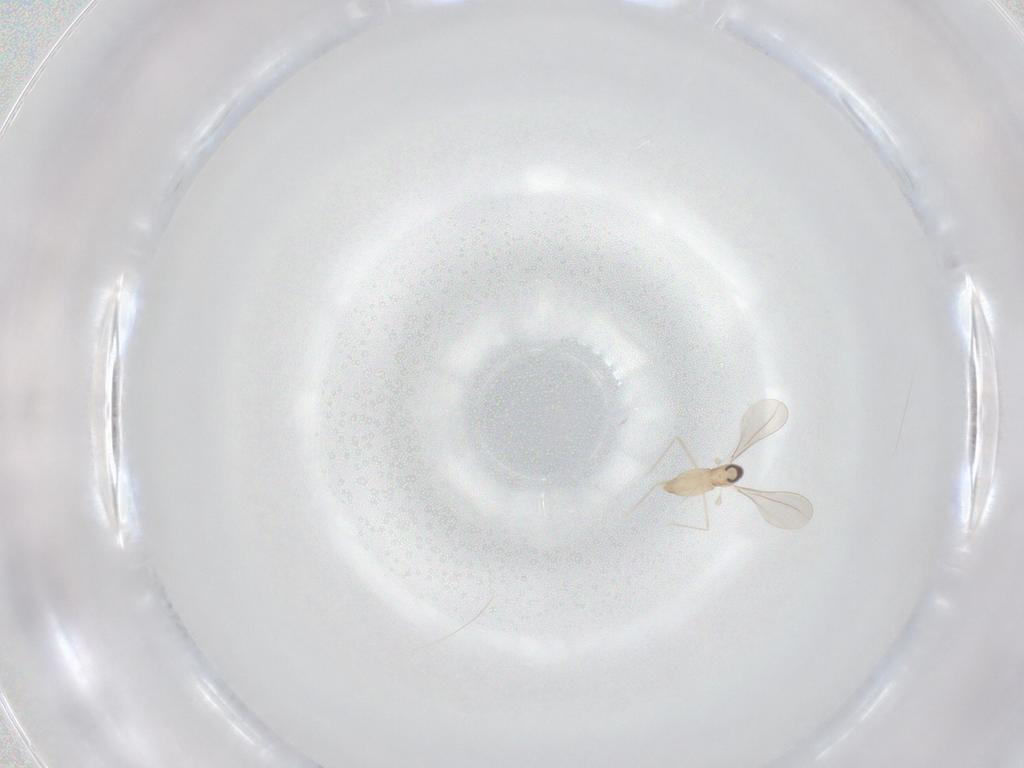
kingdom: Animalia
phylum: Arthropoda
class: Insecta
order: Diptera
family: Cecidomyiidae
